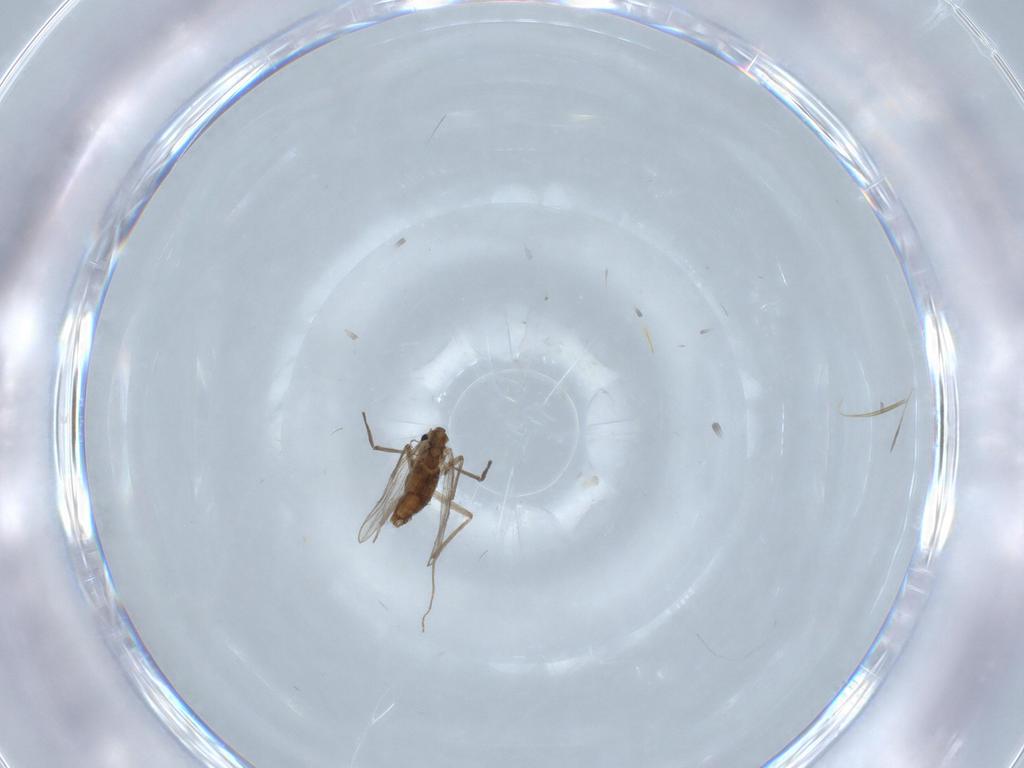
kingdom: Animalia
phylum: Arthropoda
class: Insecta
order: Diptera
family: Chironomidae
